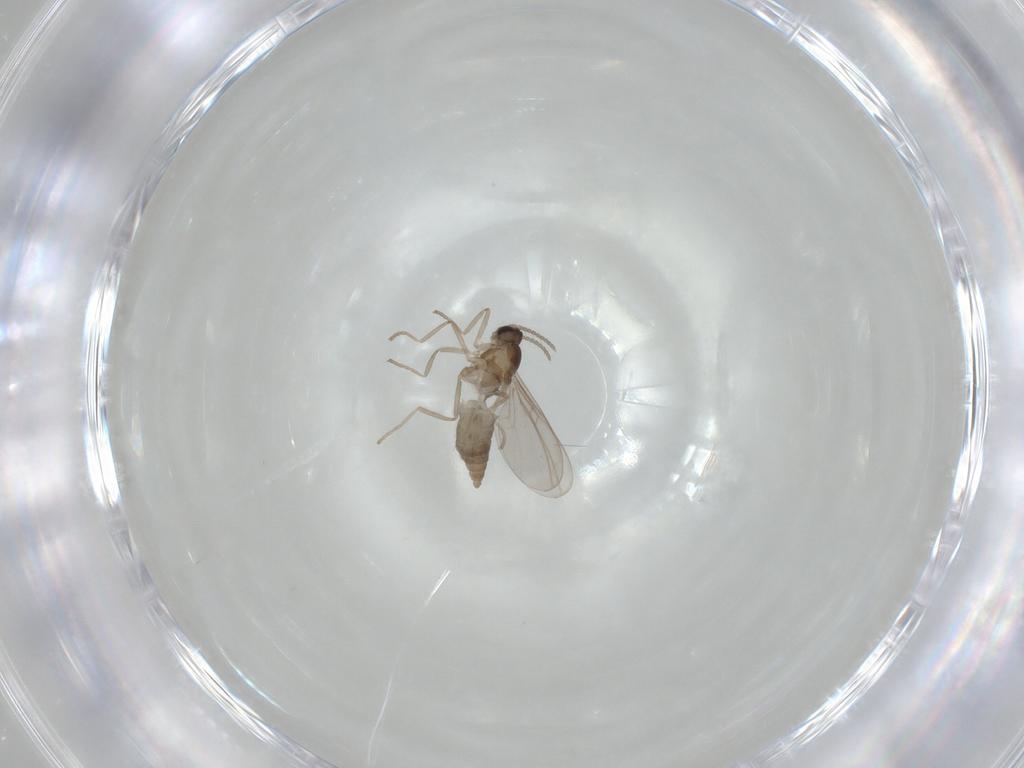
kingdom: Animalia
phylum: Arthropoda
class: Insecta
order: Diptera
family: Cecidomyiidae
